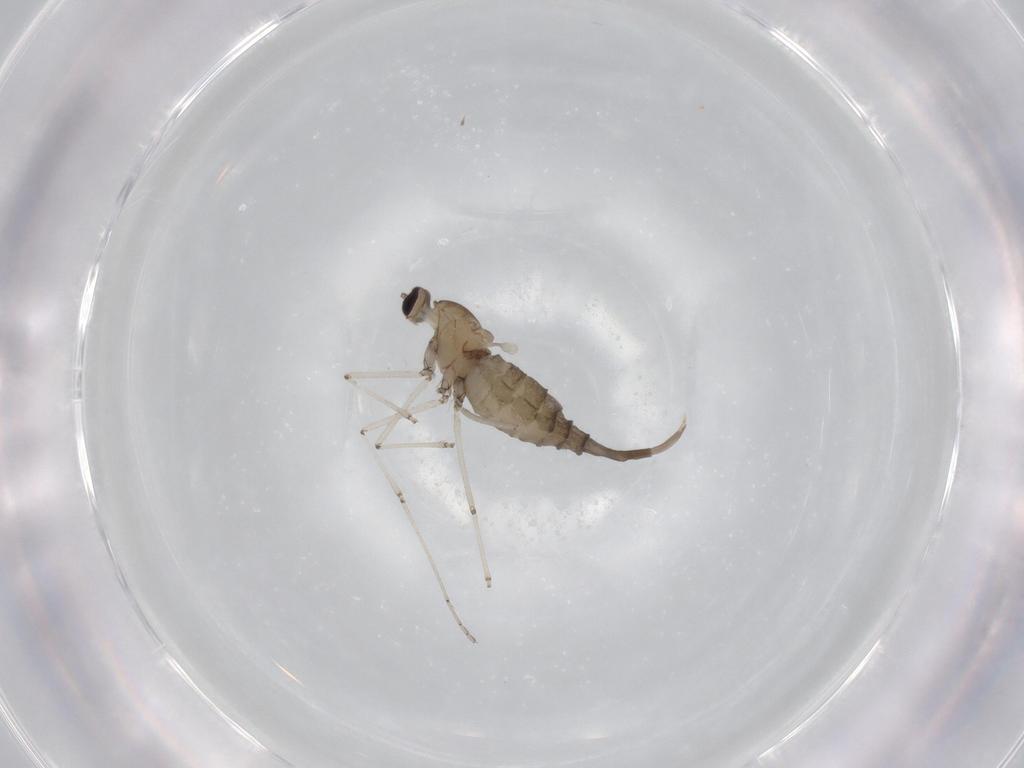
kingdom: Animalia
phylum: Arthropoda
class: Insecta
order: Diptera
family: Cecidomyiidae
